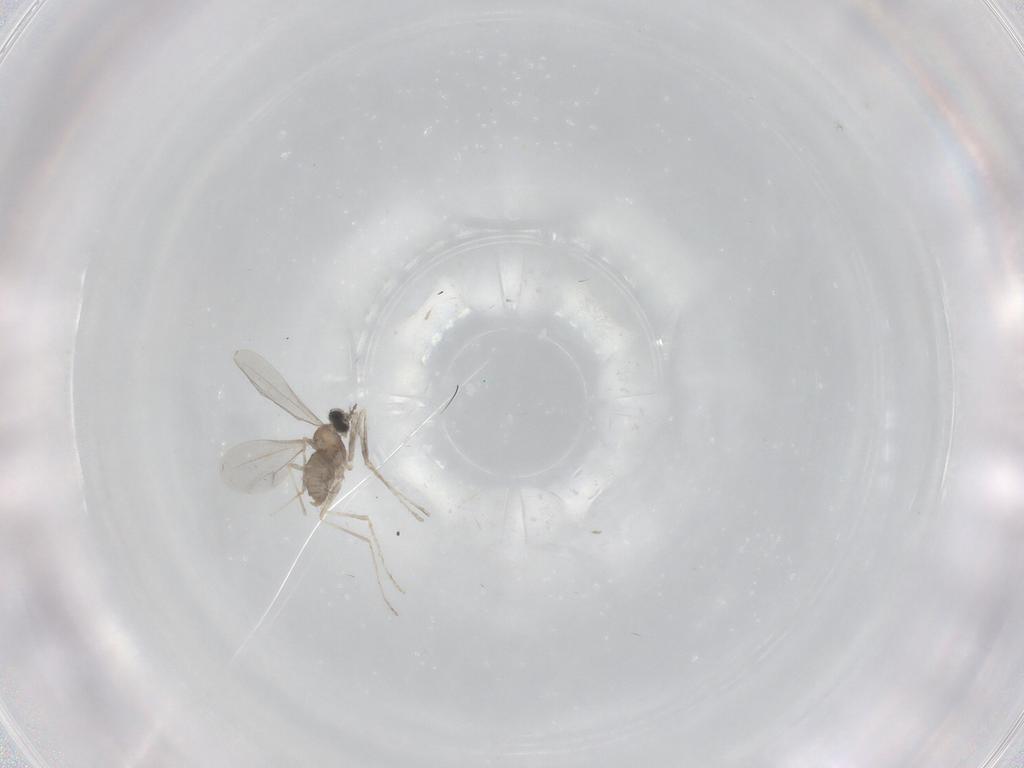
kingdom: Animalia
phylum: Arthropoda
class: Insecta
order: Diptera
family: Cecidomyiidae
